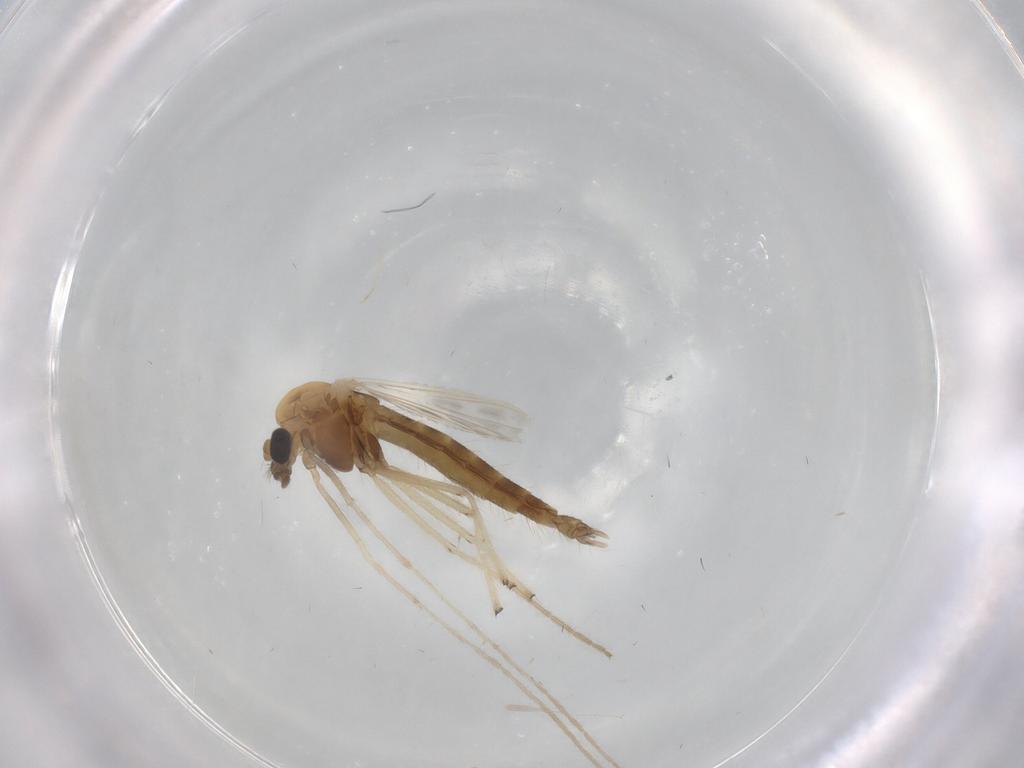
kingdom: Animalia
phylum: Arthropoda
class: Insecta
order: Diptera
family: Chironomidae
